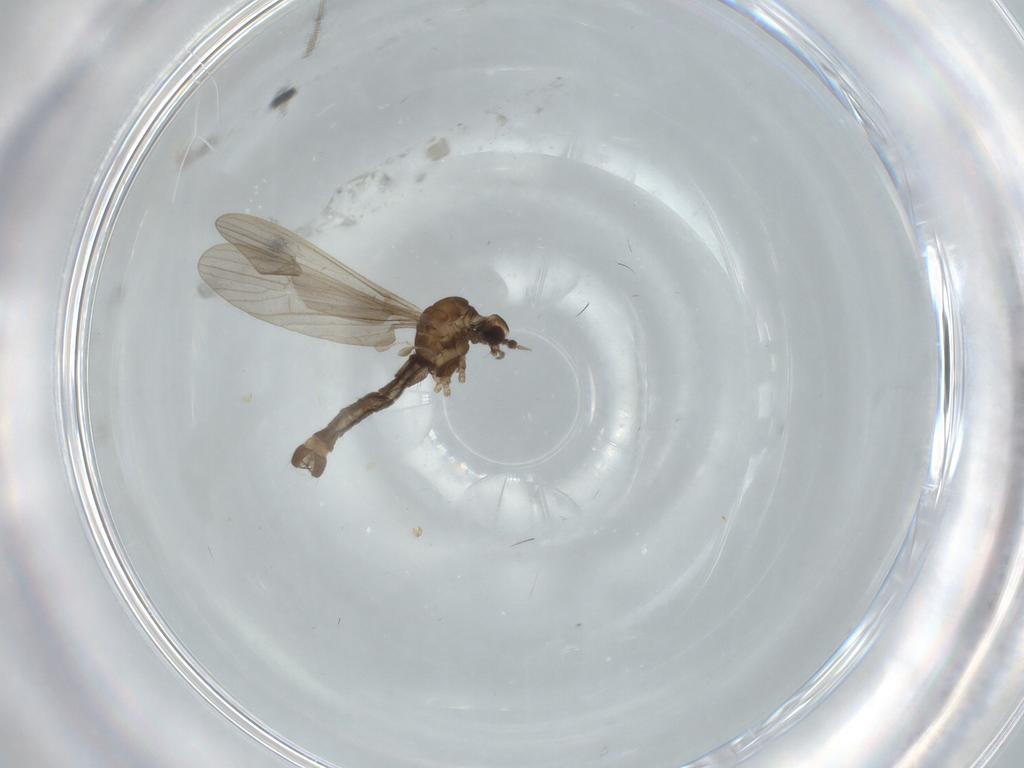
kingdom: Animalia
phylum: Arthropoda
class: Insecta
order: Diptera
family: Limoniidae
